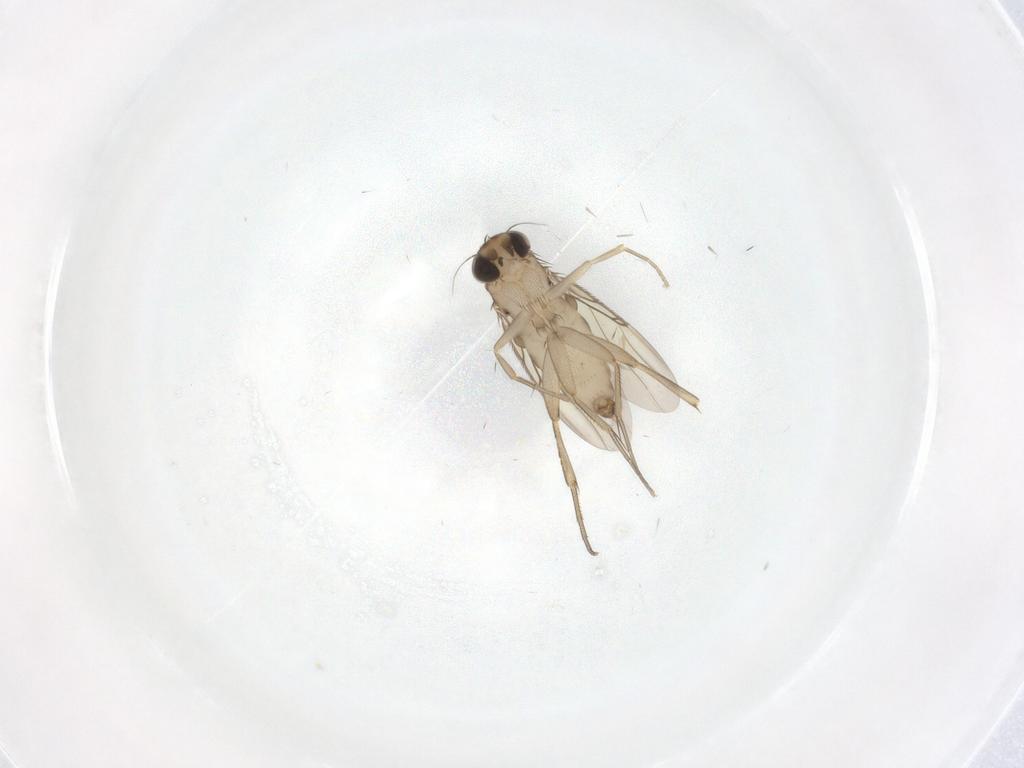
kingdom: Animalia
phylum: Arthropoda
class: Insecta
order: Diptera
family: Phoridae
